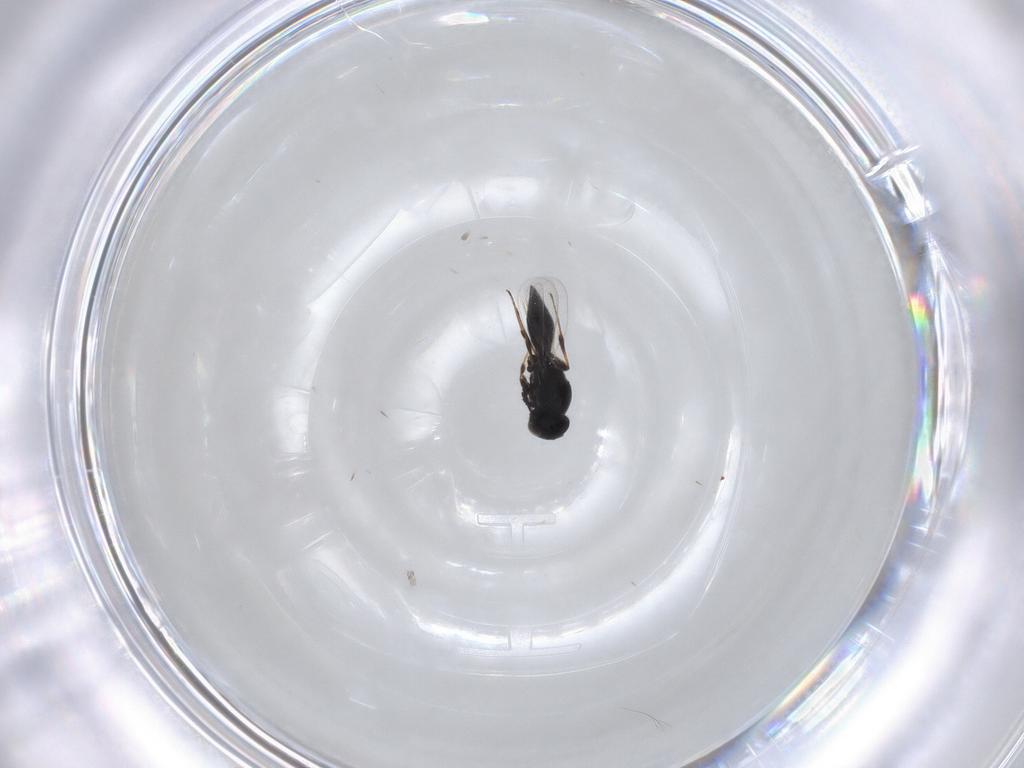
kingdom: Animalia
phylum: Arthropoda
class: Insecta
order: Hymenoptera
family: Platygastridae
